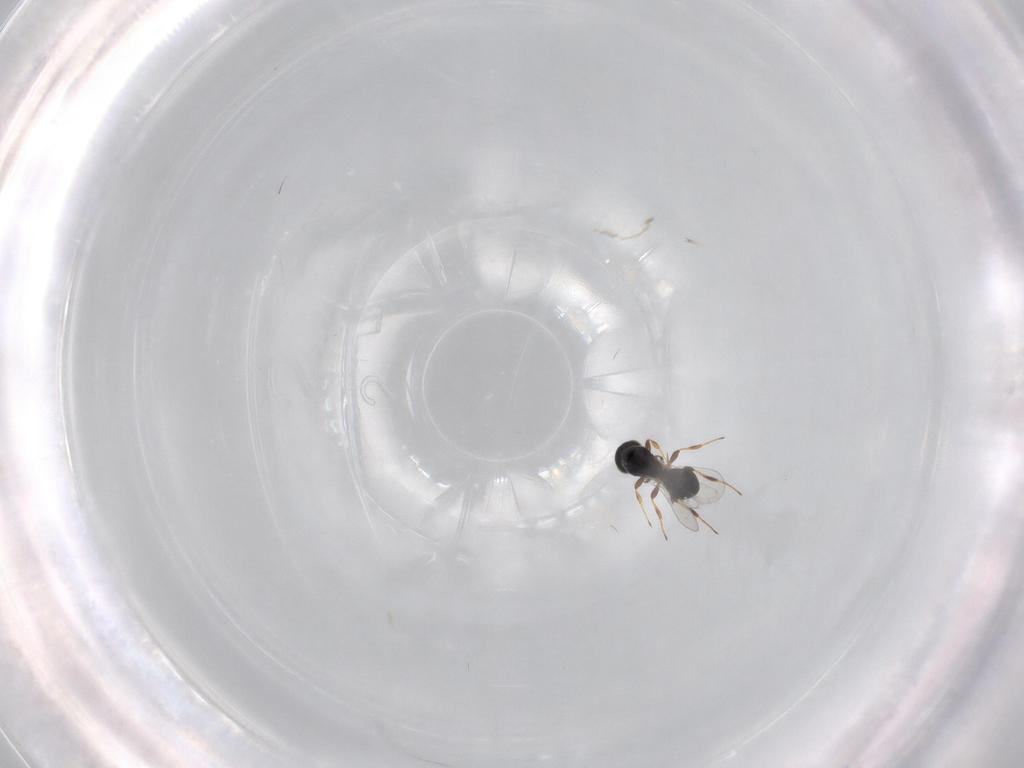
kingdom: Animalia
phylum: Arthropoda
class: Insecta
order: Hymenoptera
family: Platygastridae
